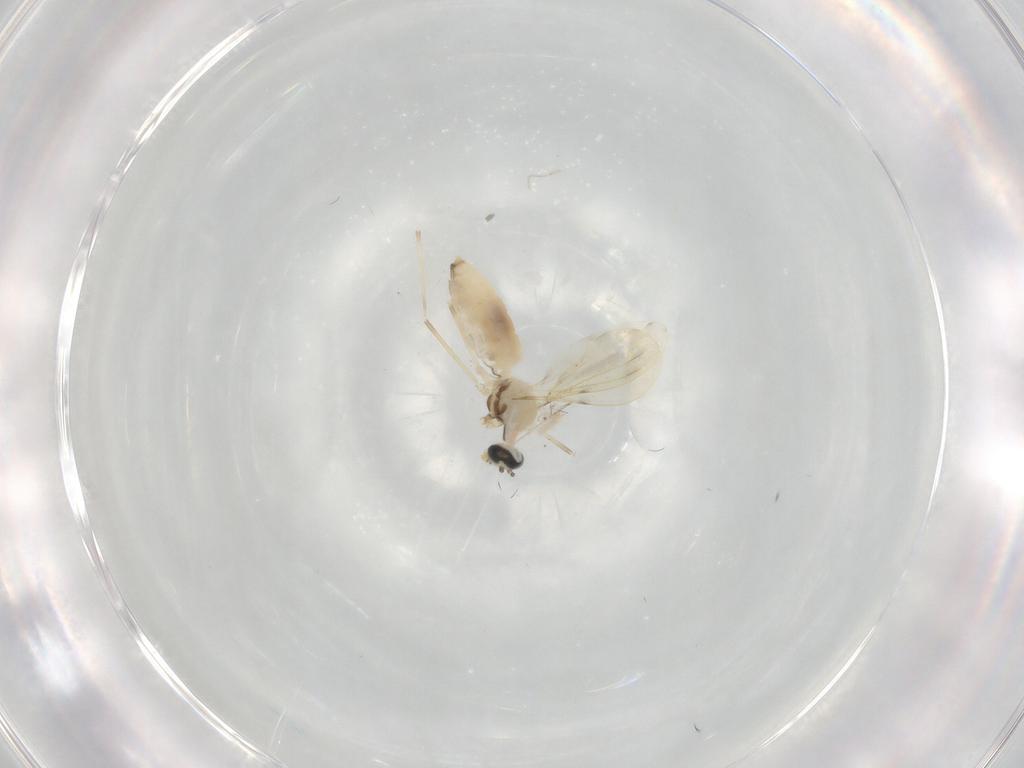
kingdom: Animalia
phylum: Arthropoda
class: Insecta
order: Diptera
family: Cecidomyiidae
